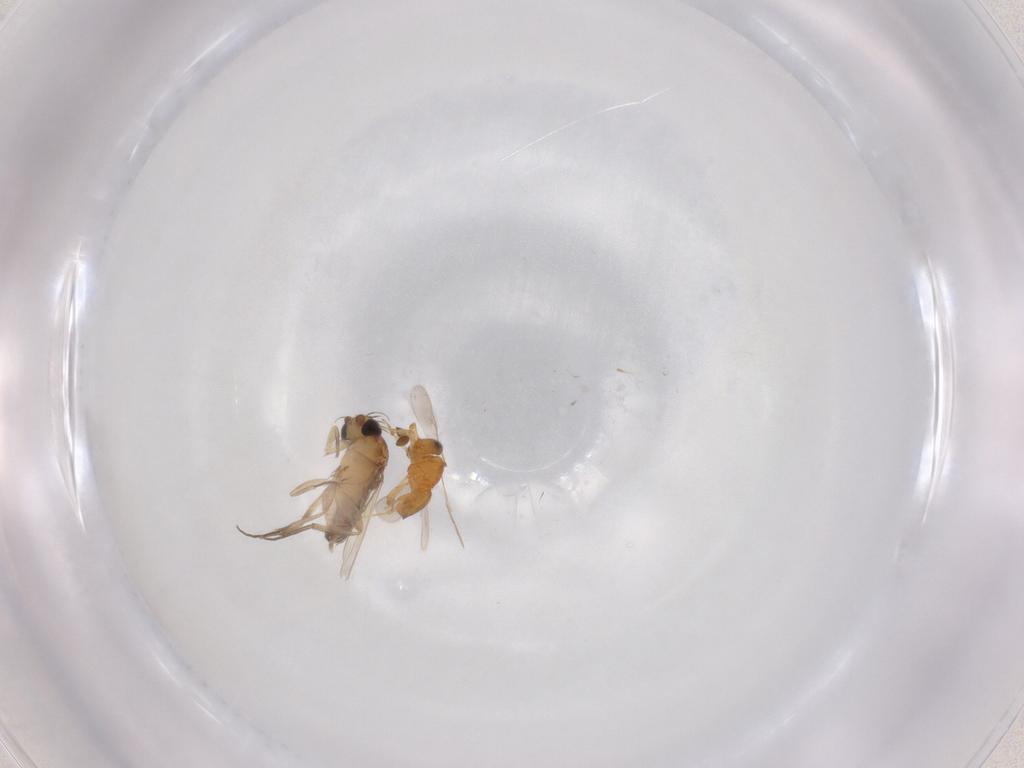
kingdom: Animalia
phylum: Arthropoda
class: Insecta
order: Diptera
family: Phoridae
